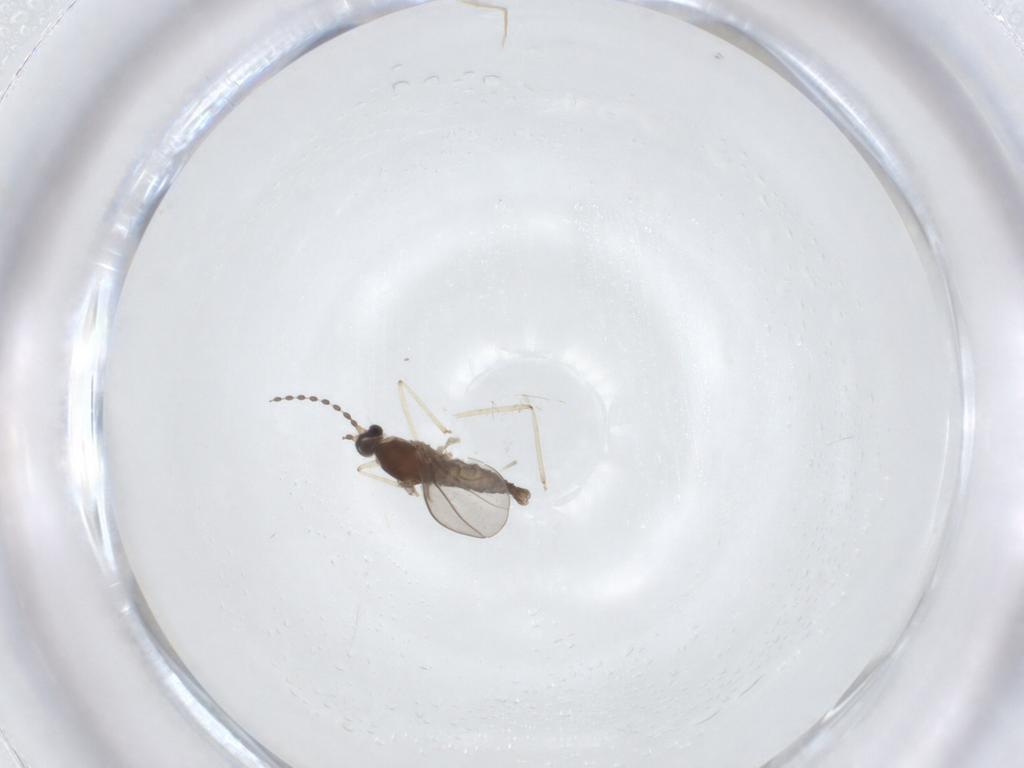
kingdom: Animalia
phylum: Arthropoda
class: Insecta
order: Diptera
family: Cecidomyiidae
